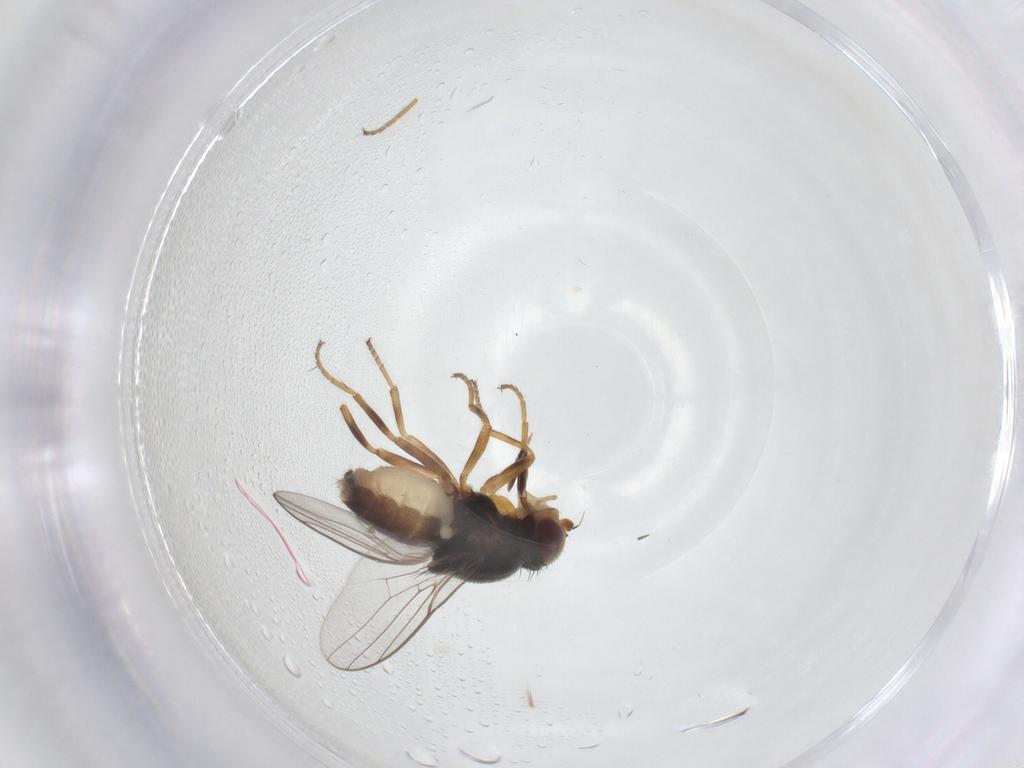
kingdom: Animalia
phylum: Arthropoda
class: Insecta
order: Diptera
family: Chloropidae
